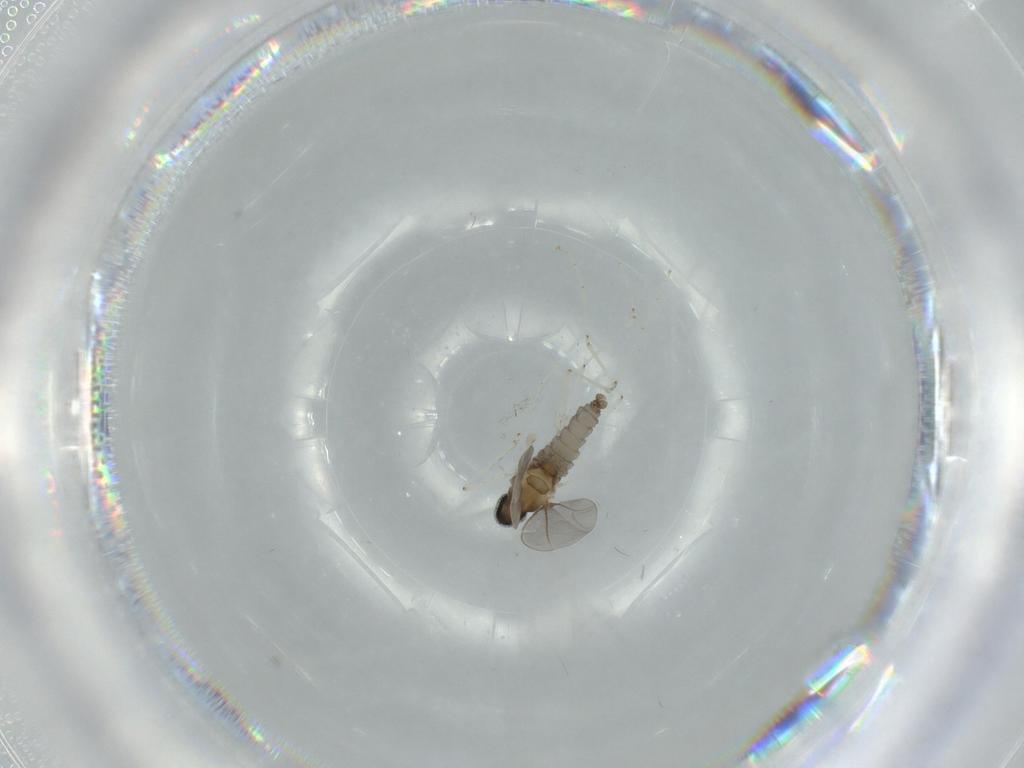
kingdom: Animalia
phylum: Arthropoda
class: Insecta
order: Diptera
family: Cecidomyiidae
